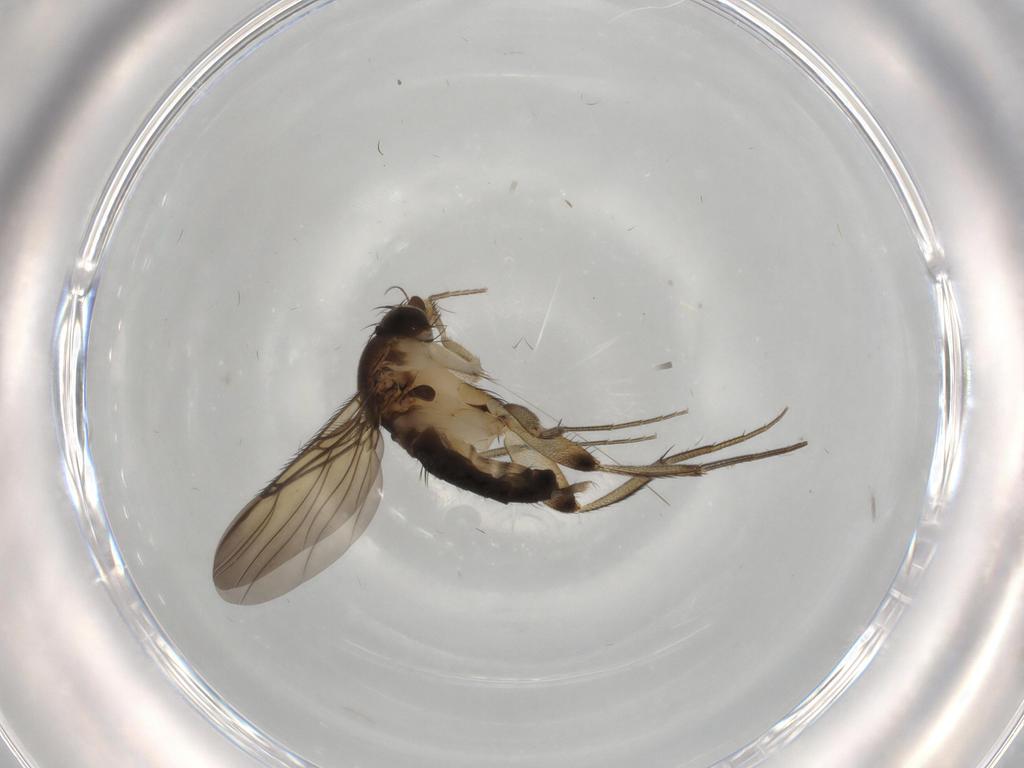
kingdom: Animalia
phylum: Arthropoda
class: Insecta
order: Diptera
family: Phoridae
